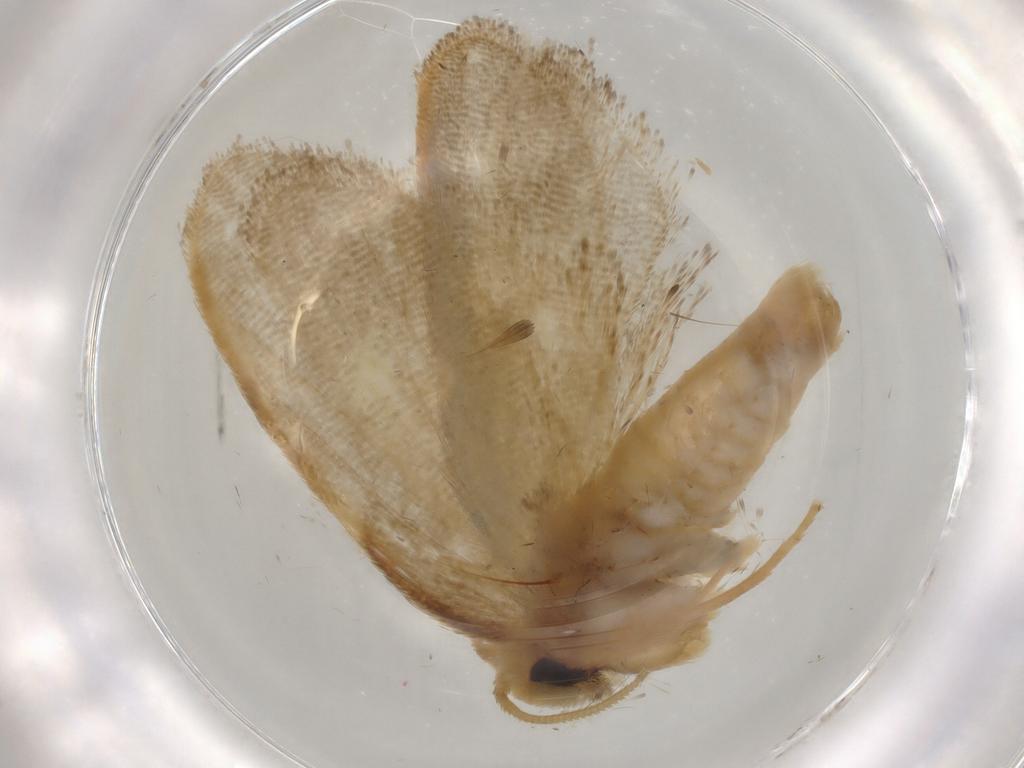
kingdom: Animalia
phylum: Arthropoda
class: Insecta
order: Lepidoptera
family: Psychidae
